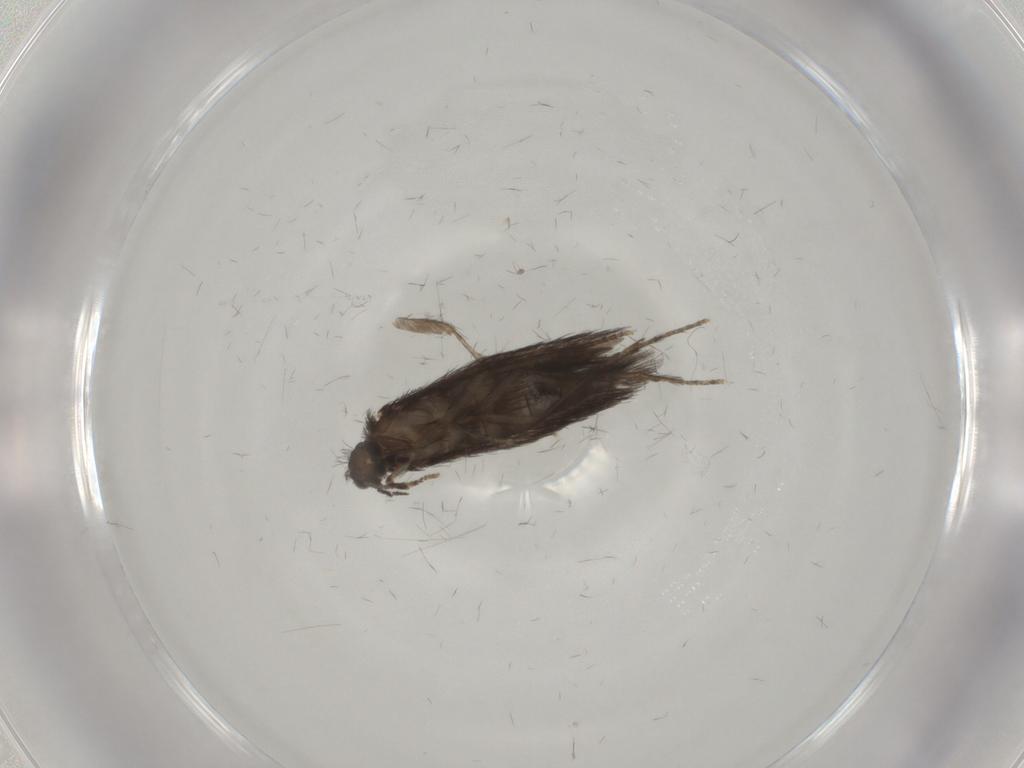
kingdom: Animalia
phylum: Arthropoda
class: Insecta
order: Trichoptera
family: Hydroptilidae
